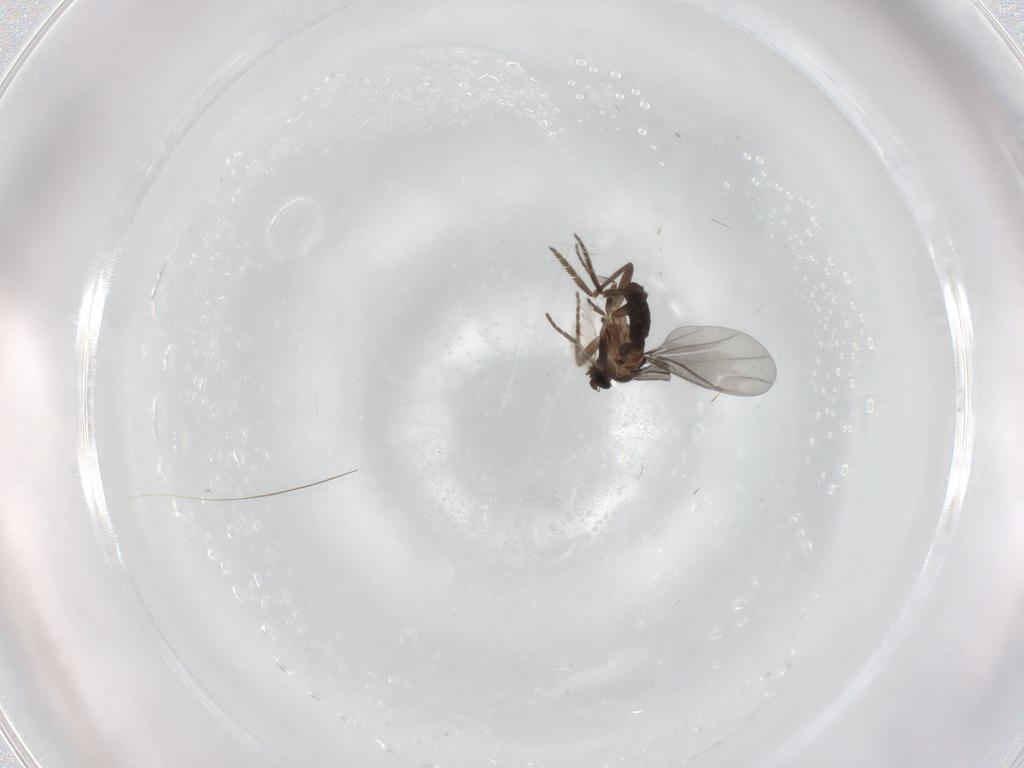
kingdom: Animalia
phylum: Arthropoda
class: Insecta
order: Diptera
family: Phoridae
